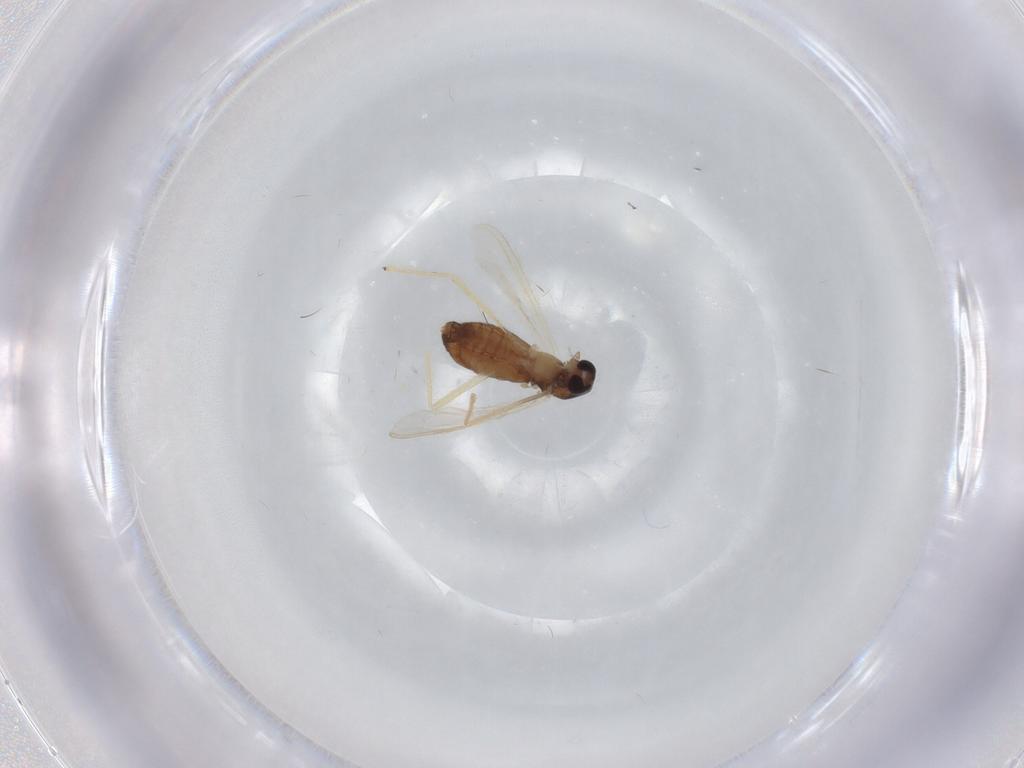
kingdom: Animalia
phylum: Arthropoda
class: Insecta
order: Diptera
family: Chironomidae
